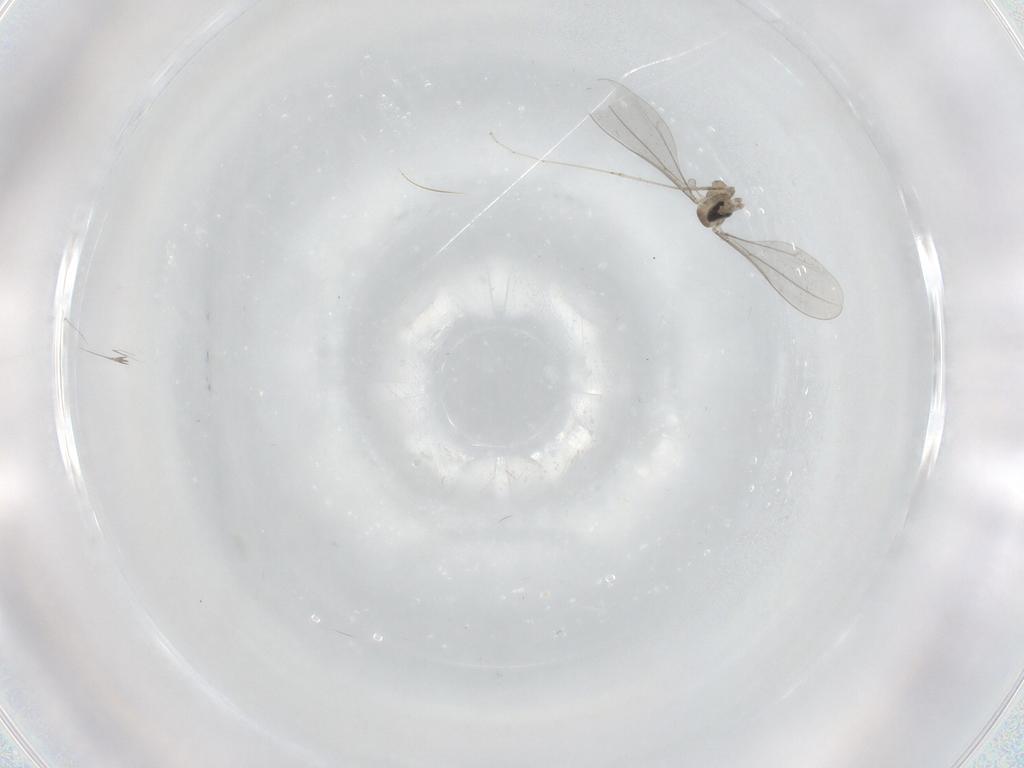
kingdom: Animalia
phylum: Arthropoda
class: Insecta
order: Diptera
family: Cecidomyiidae
